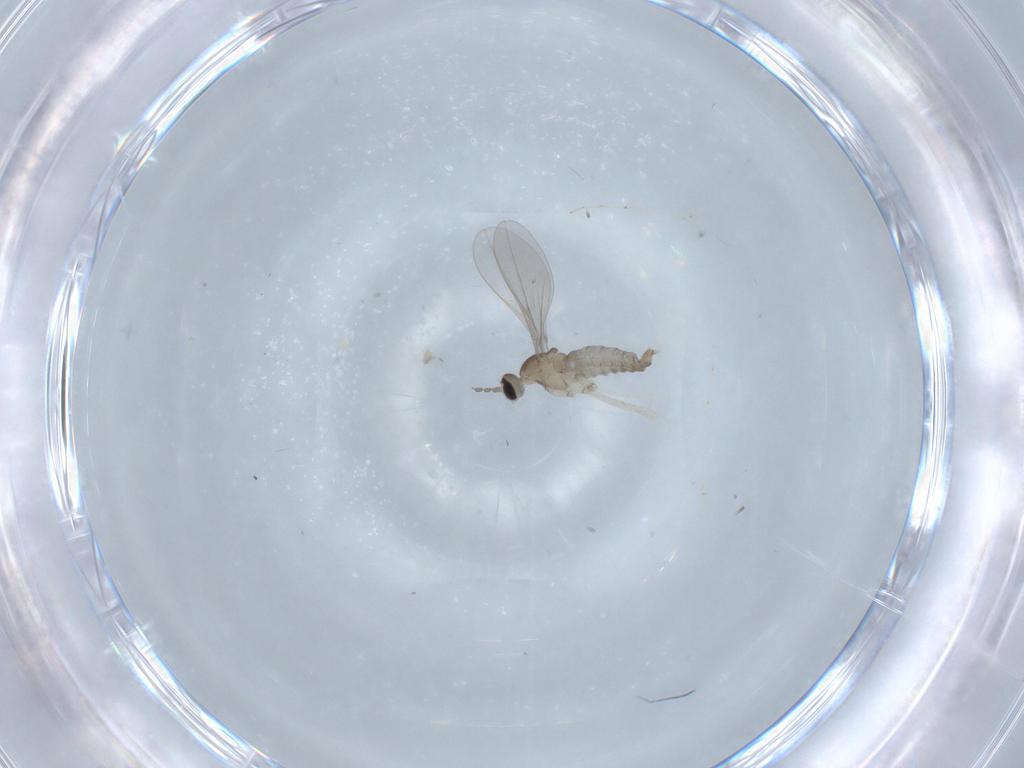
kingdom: Animalia
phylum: Arthropoda
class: Insecta
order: Diptera
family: Cecidomyiidae
